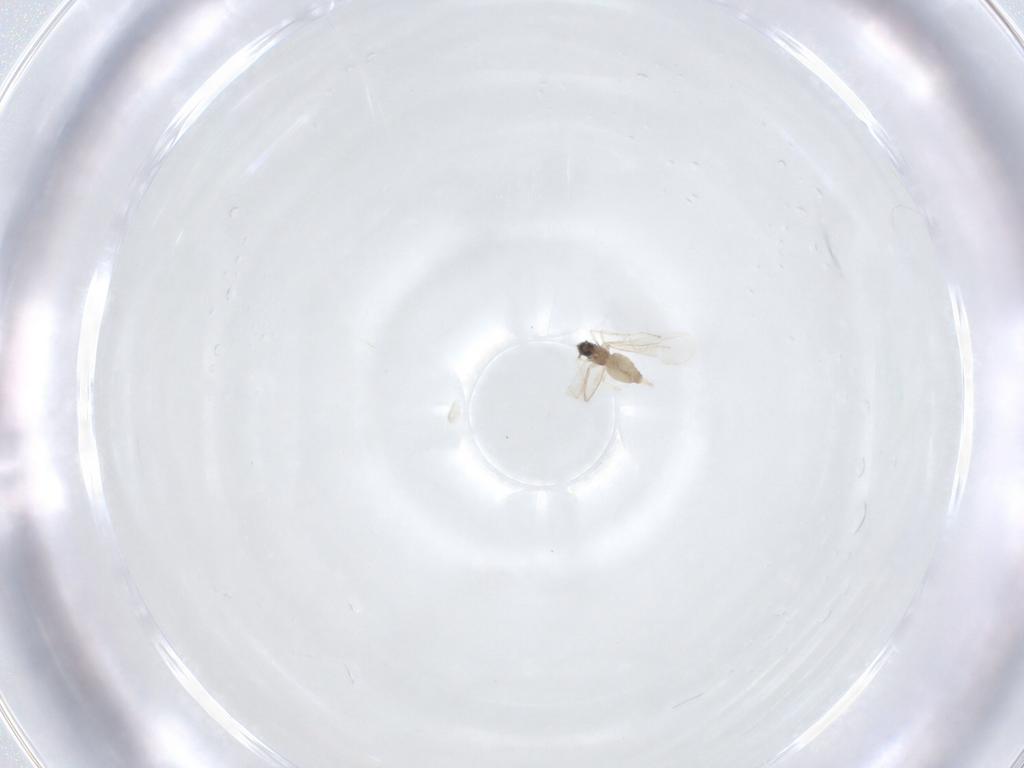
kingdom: Animalia
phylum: Arthropoda
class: Insecta
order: Diptera
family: Cecidomyiidae
